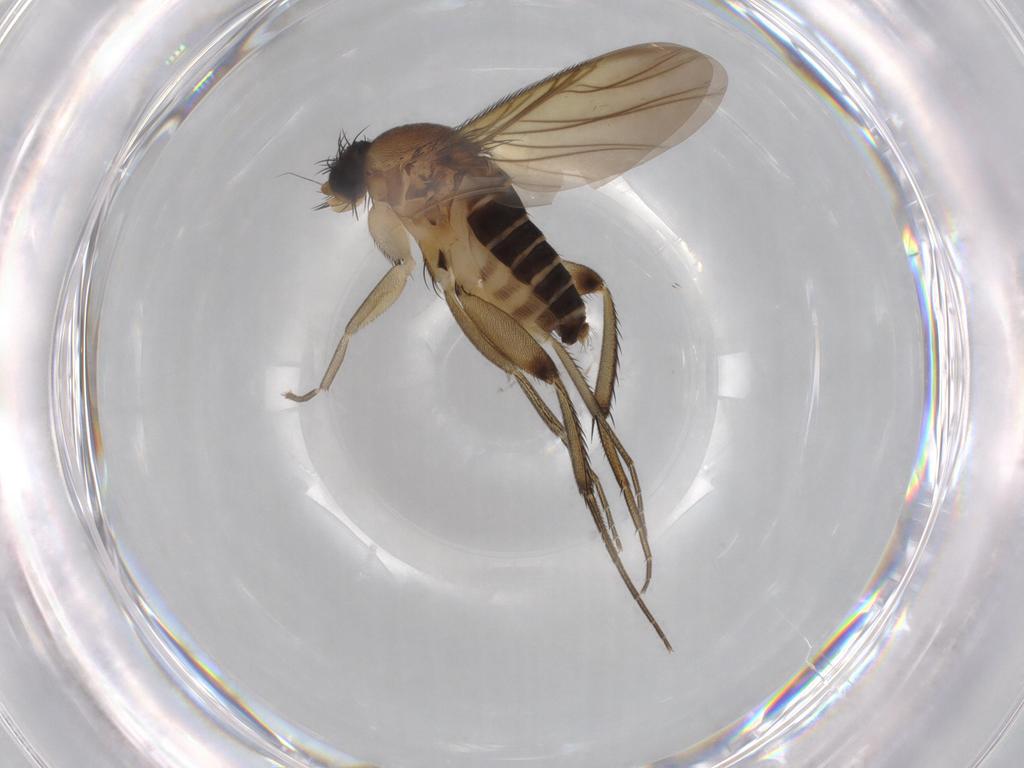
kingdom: Animalia
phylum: Arthropoda
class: Insecta
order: Diptera
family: Phoridae
